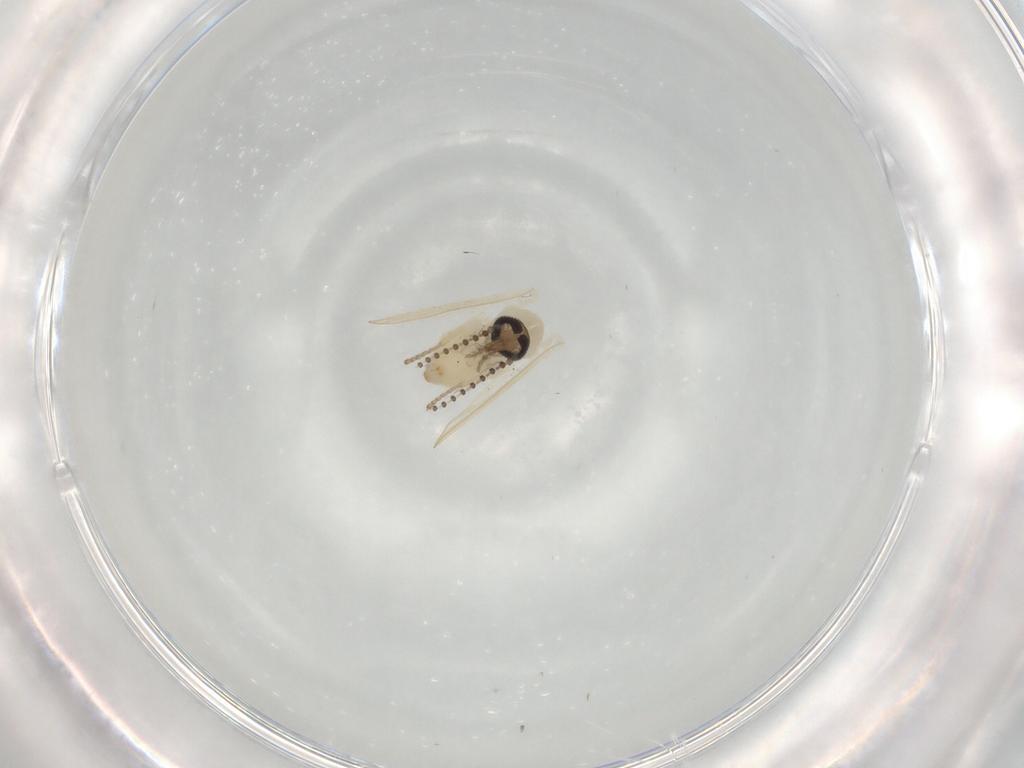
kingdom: Animalia
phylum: Arthropoda
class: Insecta
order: Diptera
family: Psychodidae
